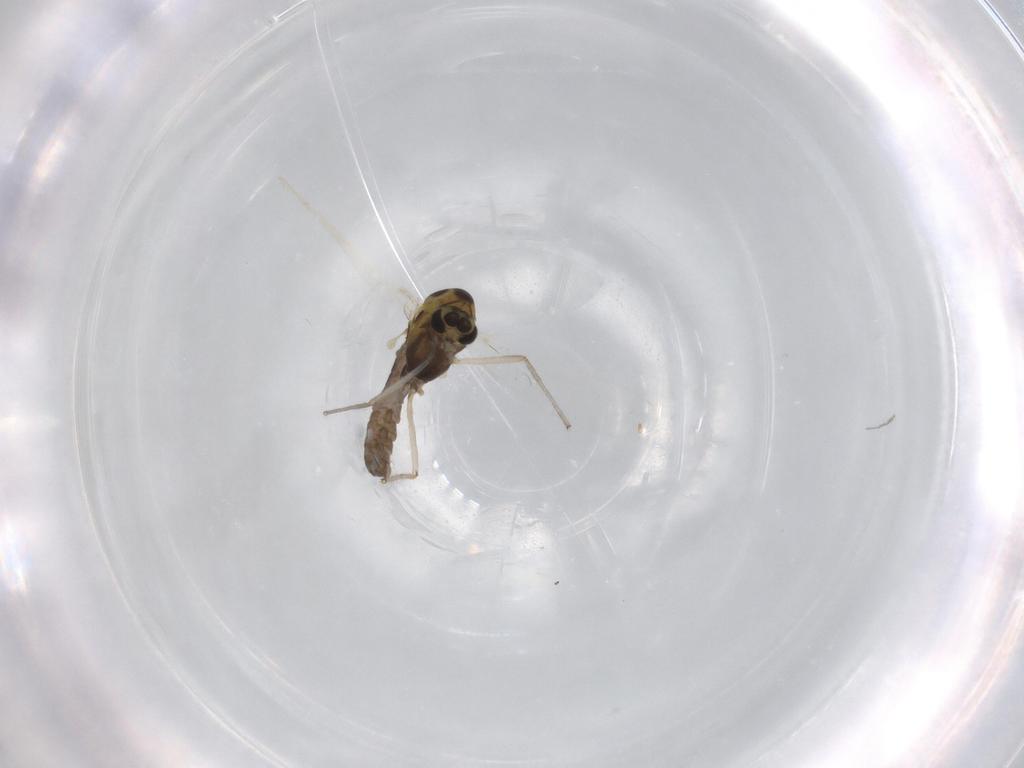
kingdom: Animalia
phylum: Arthropoda
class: Insecta
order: Diptera
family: Chironomidae
